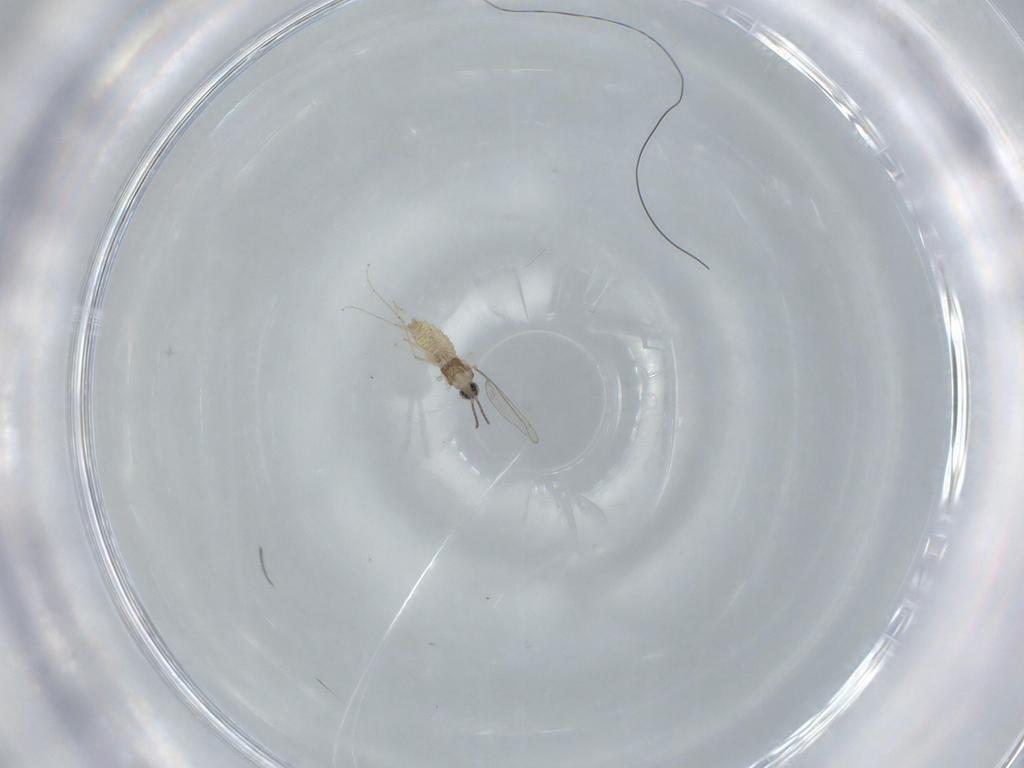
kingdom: Animalia
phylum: Arthropoda
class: Insecta
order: Diptera
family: Cecidomyiidae
